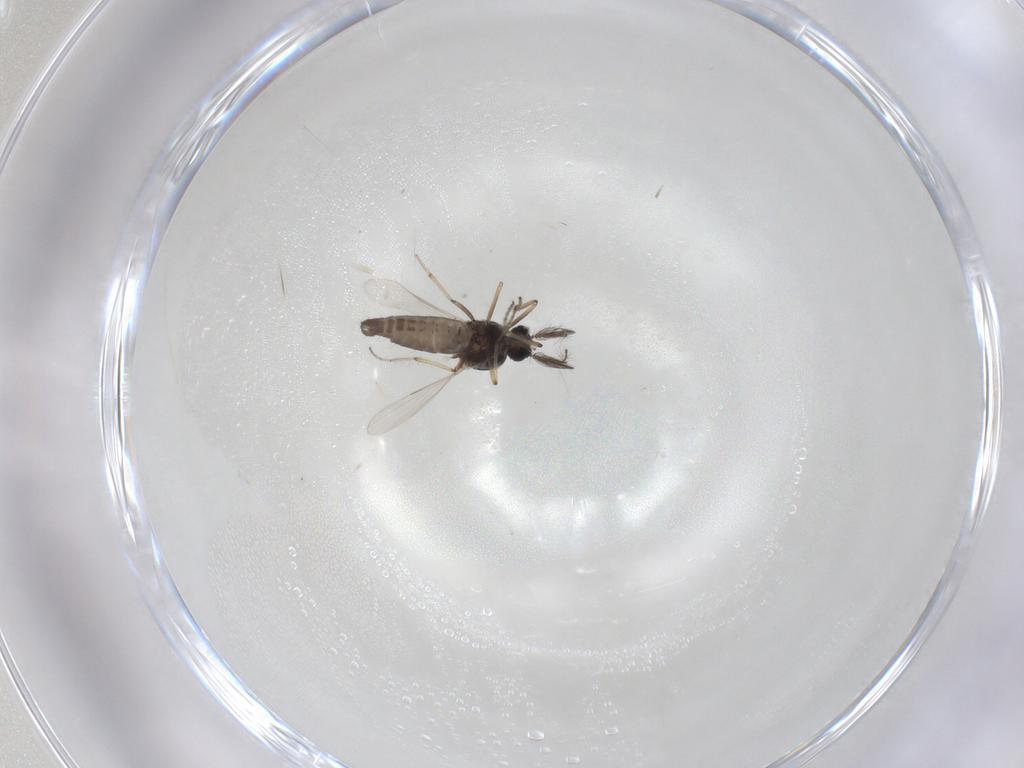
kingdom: Animalia
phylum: Arthropoda
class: Insecta
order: Diptera
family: Ceratopogonidae
